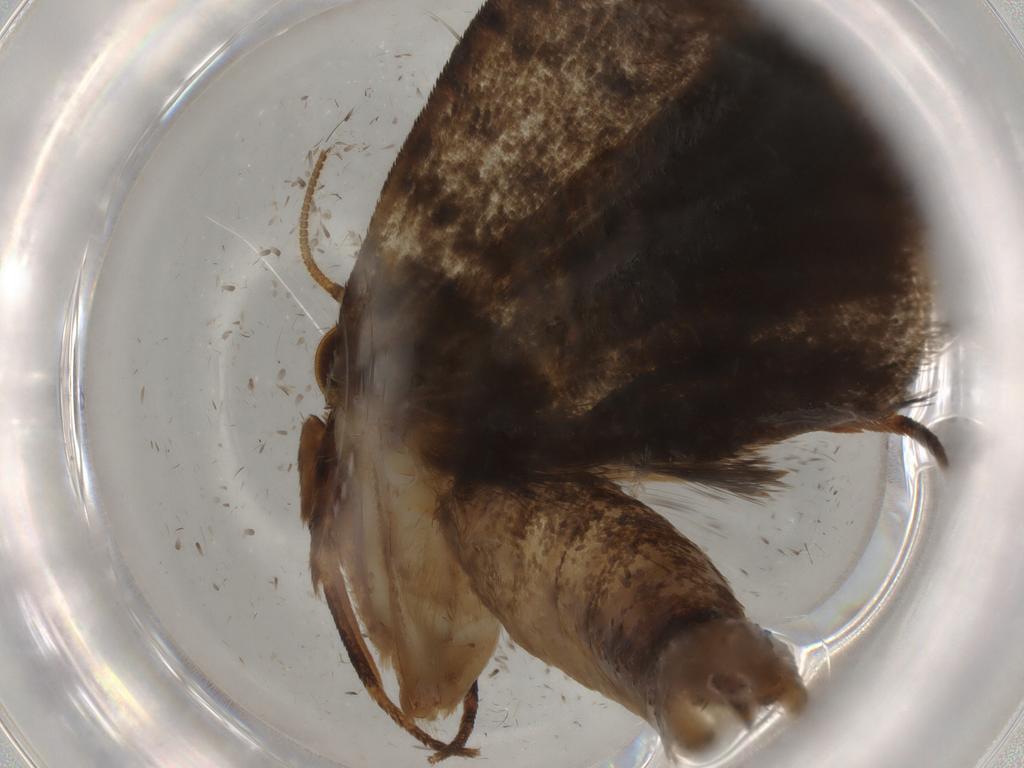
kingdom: Animalia
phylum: Arthropoda
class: Insecta
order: Lepidoptera
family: Tineidae
